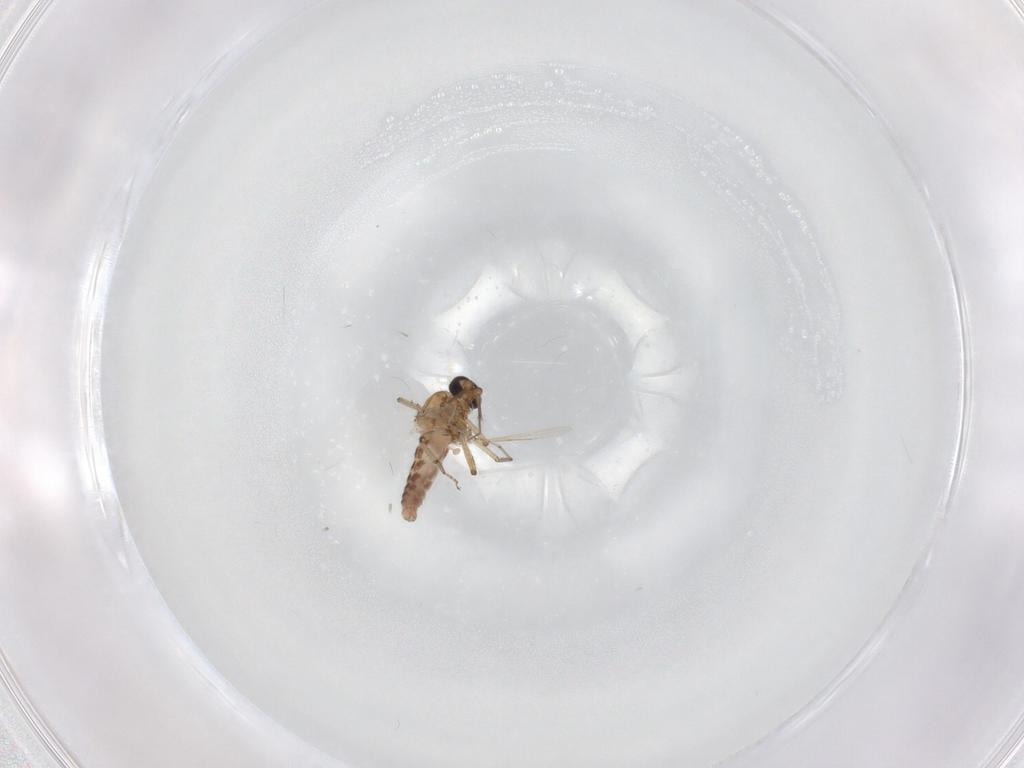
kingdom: Animalia
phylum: Arthropoda
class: Insecta
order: Diptera
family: Ceratopogonidae
